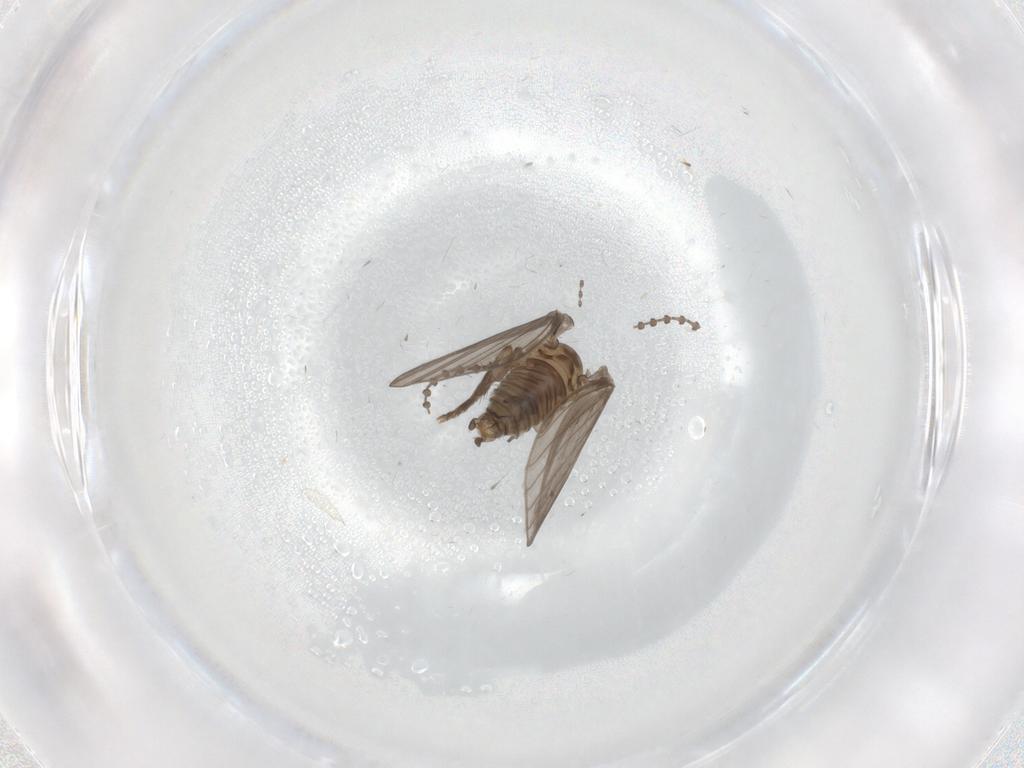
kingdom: Animalia
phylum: Arthropoda
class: Insecta
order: Diptera
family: Psychodidae
